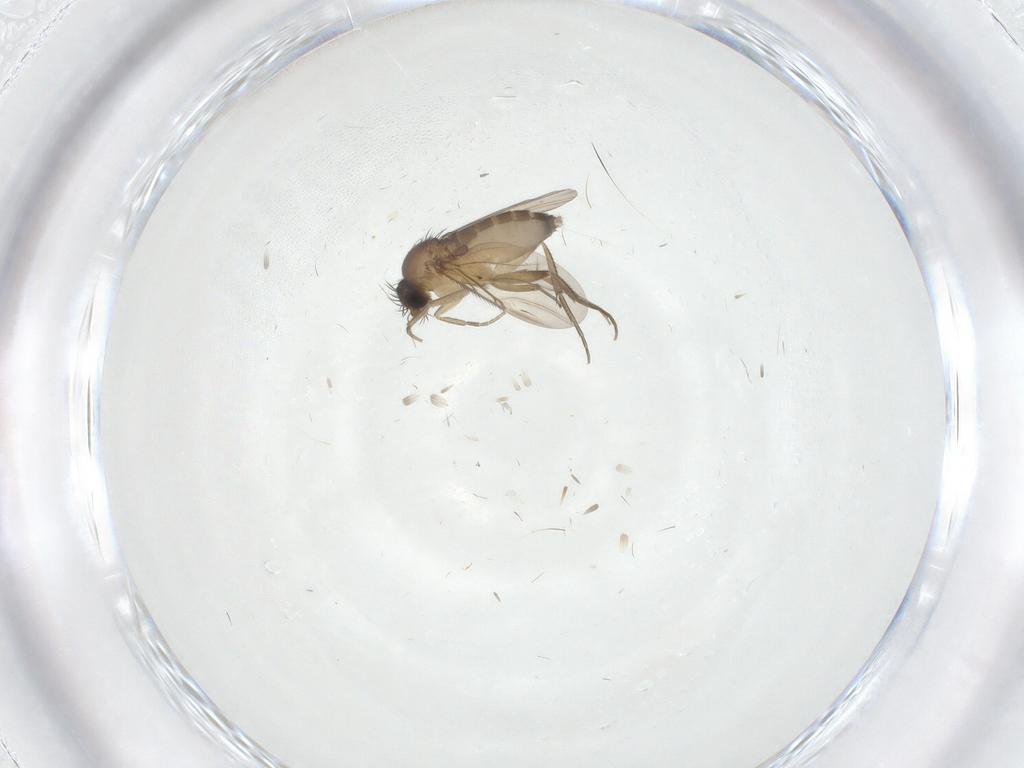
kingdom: Animalia
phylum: Arthropoda
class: Insecta
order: Diptera
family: Phoridae
